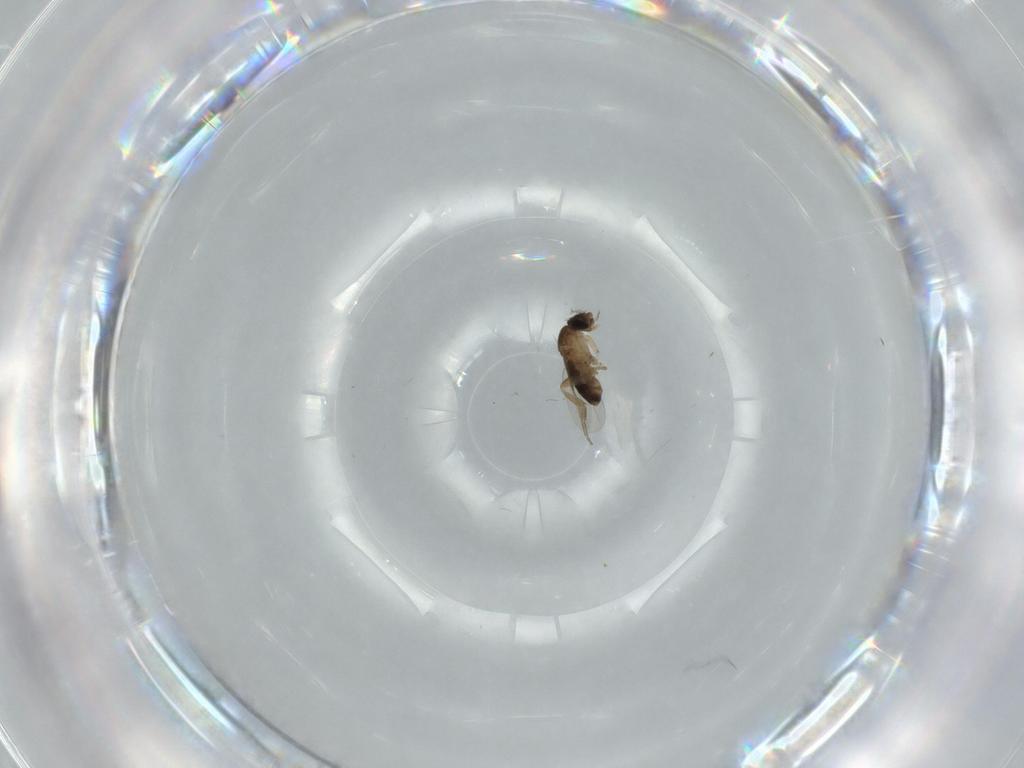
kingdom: Animalia
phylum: Arthropoda
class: Insecta
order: Diptera
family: Phoridae
